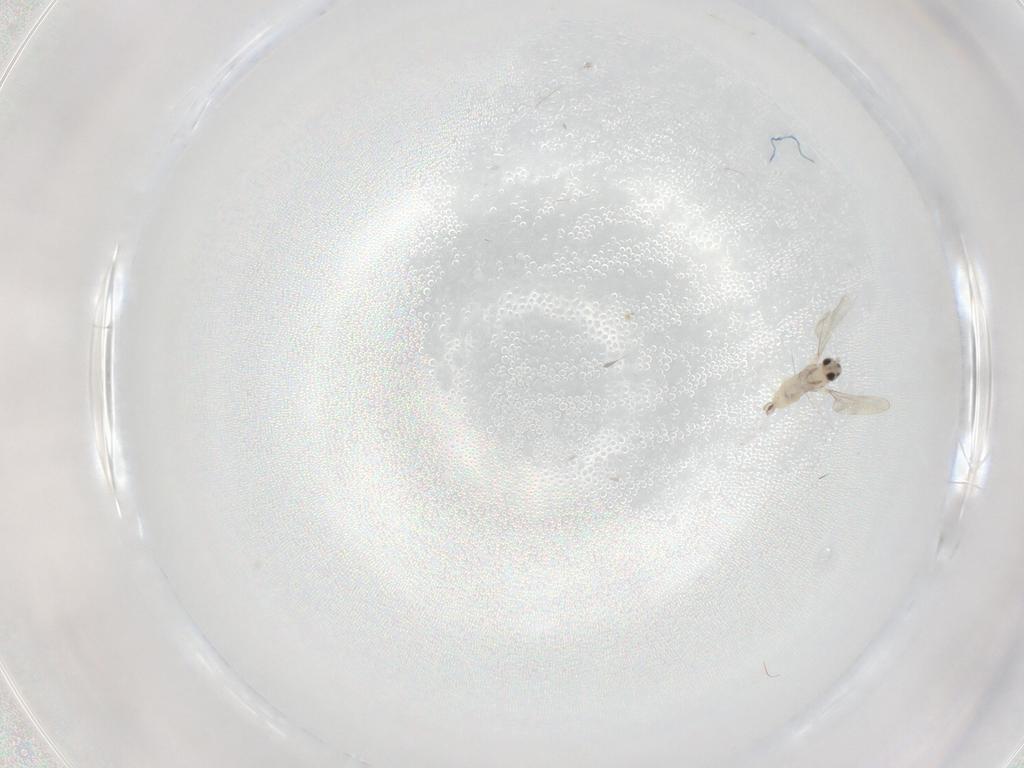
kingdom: Animalia
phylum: Arthropoda
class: Insecta
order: Diptera
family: Cecidomyiidae
